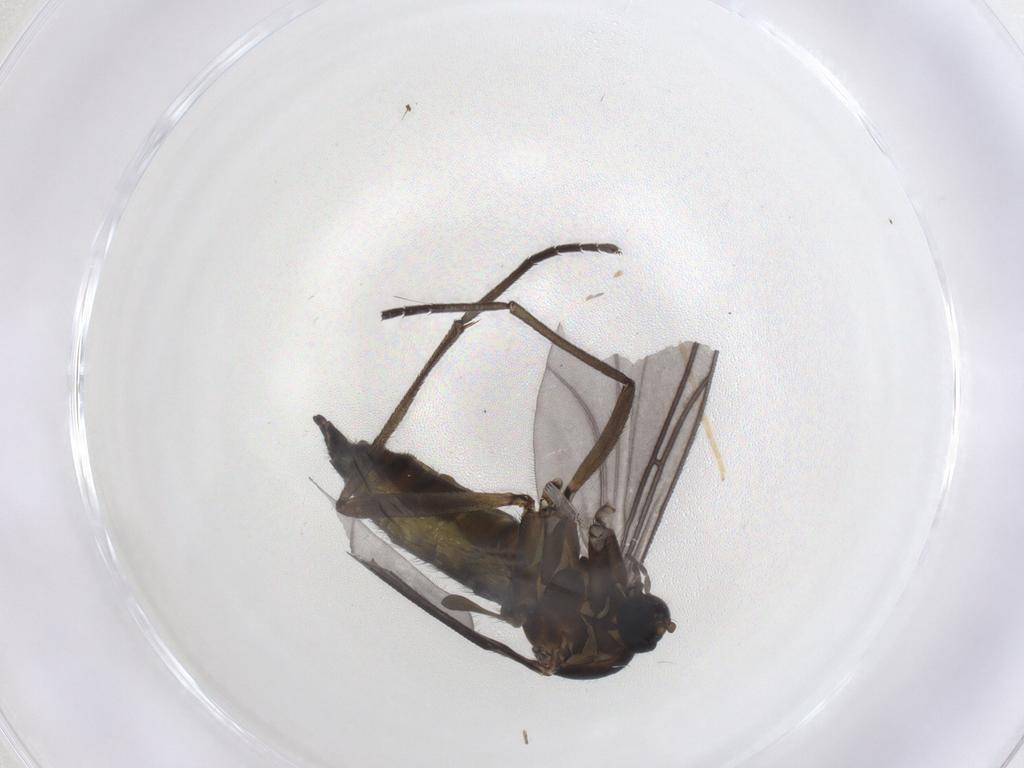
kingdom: Animalia
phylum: Arthropoda
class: Insecta
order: Diptera
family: Sciaridae
